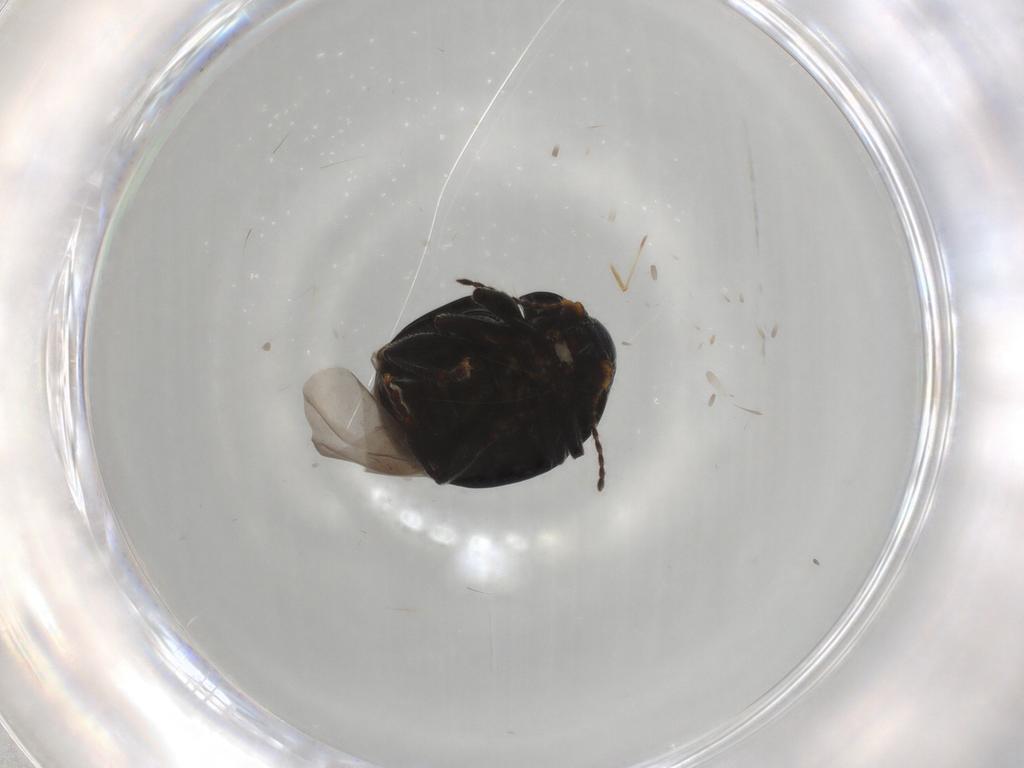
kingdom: Animalia
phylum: Arthropoda
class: Insecta
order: Coleoptera
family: Chrysomelidae
